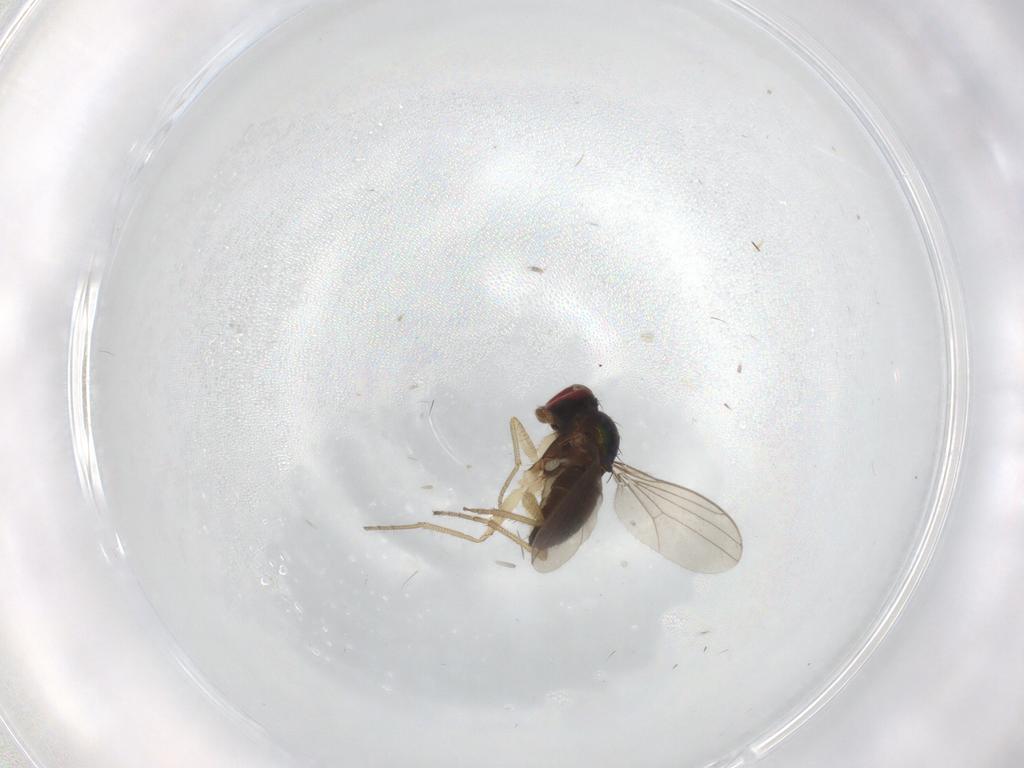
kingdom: Animalia
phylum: Arthropoda
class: Insecta
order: Diptera
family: Dolichopodidae
